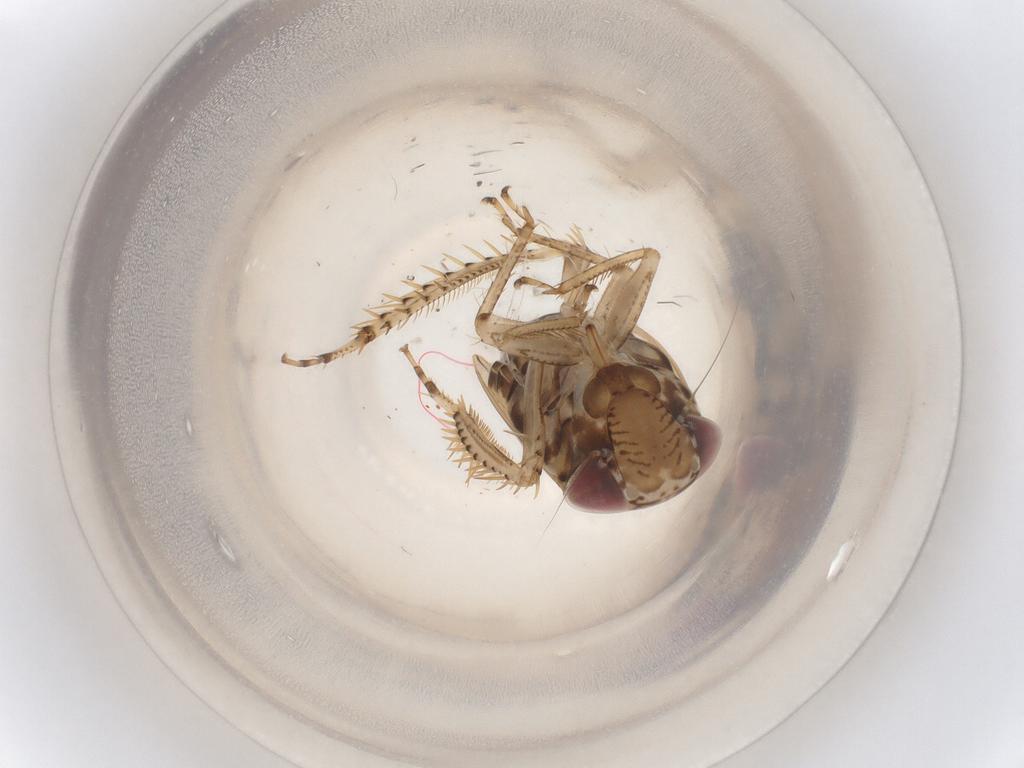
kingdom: Animalia
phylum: Arthropoda
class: Insecta
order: Hemiptera
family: Cicadellidae
